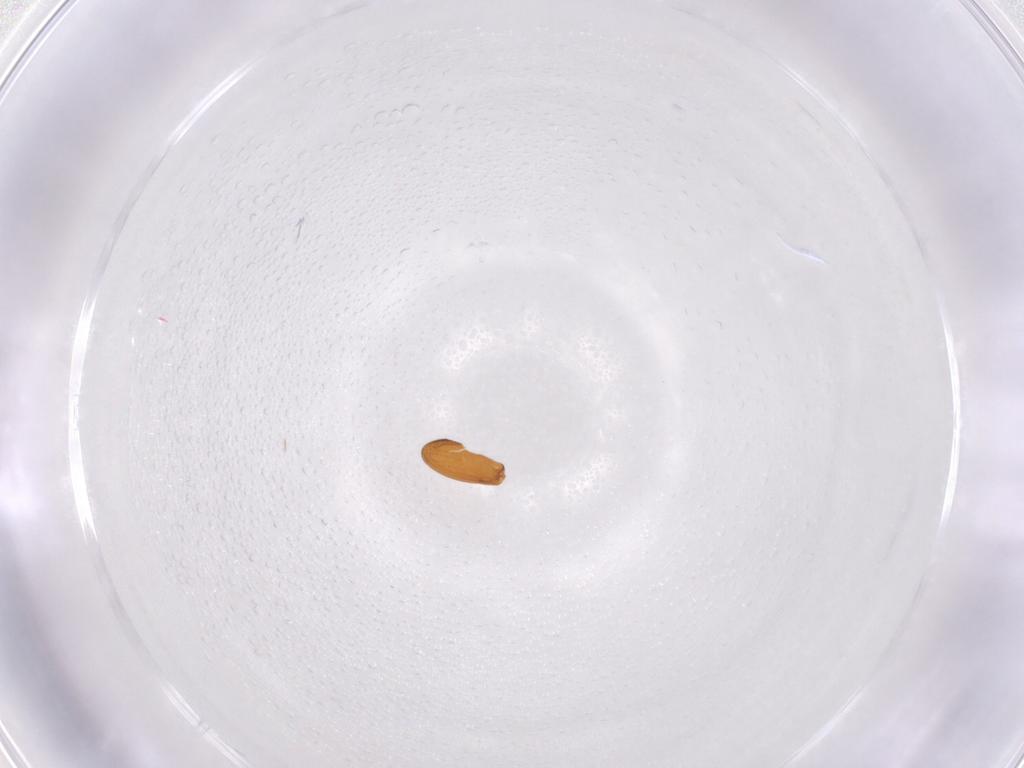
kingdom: Animalia
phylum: Arthropoda
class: Insecta
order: Coleoptera
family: Staphylinidae
